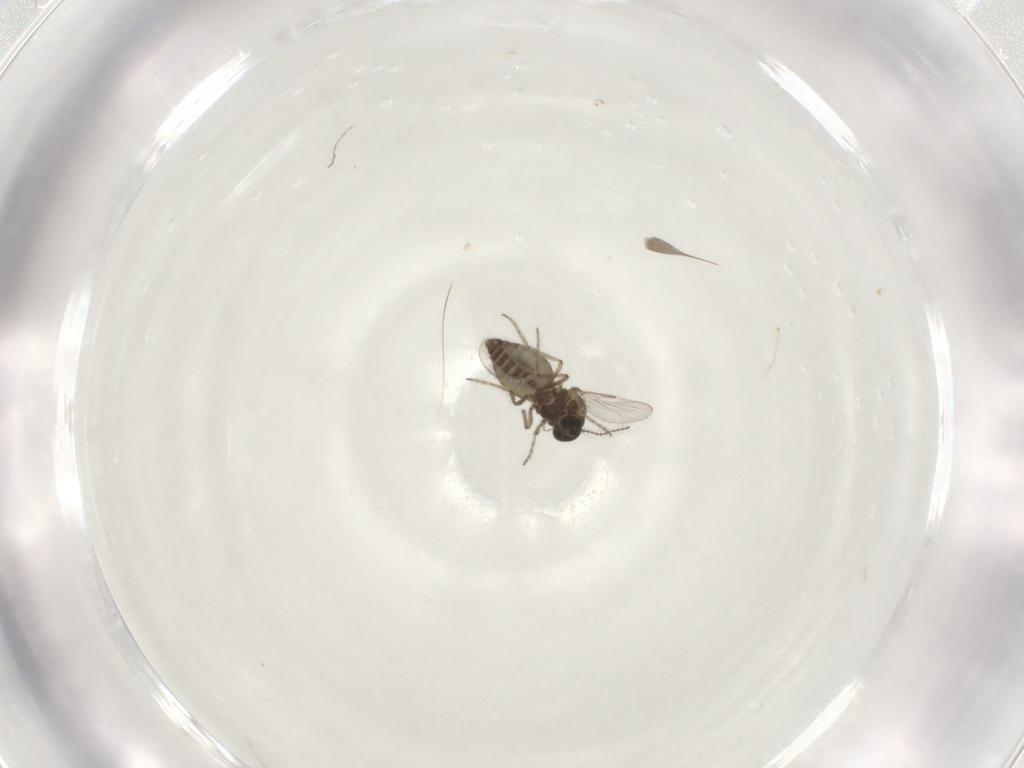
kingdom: Animalia
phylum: Arthropoda
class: Insecta
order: Diptera
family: Ceratopogonidae
